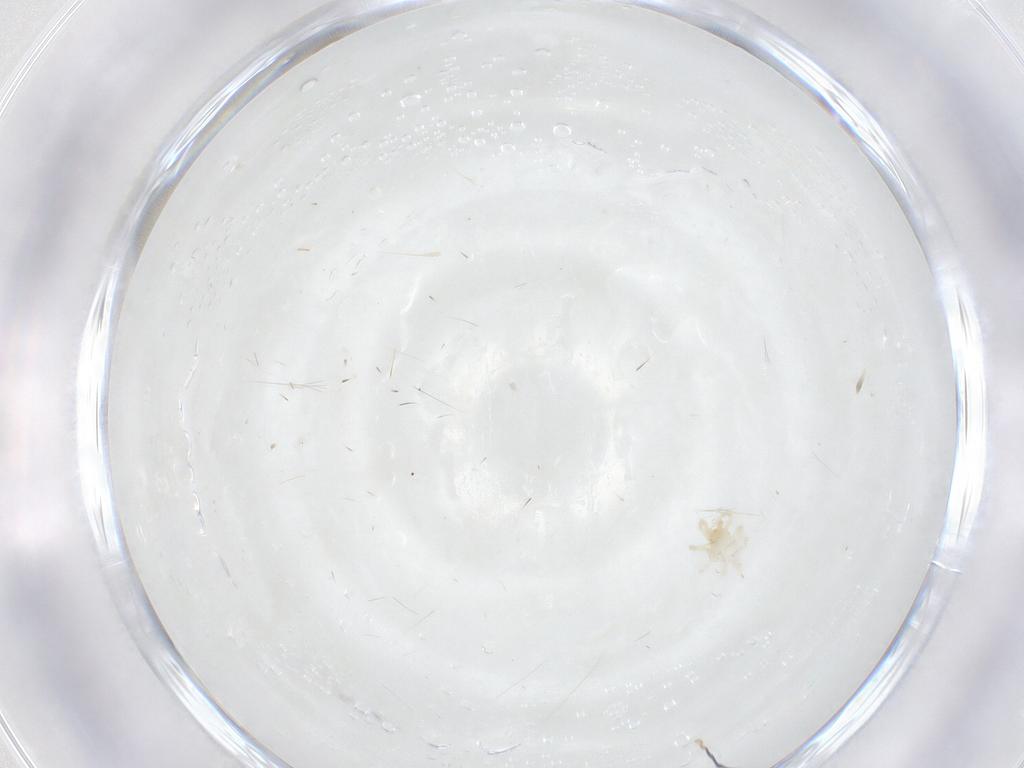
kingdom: Animalia
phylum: Arthropoda
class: Arachnida
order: Trombidiformes
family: Bdellidae
